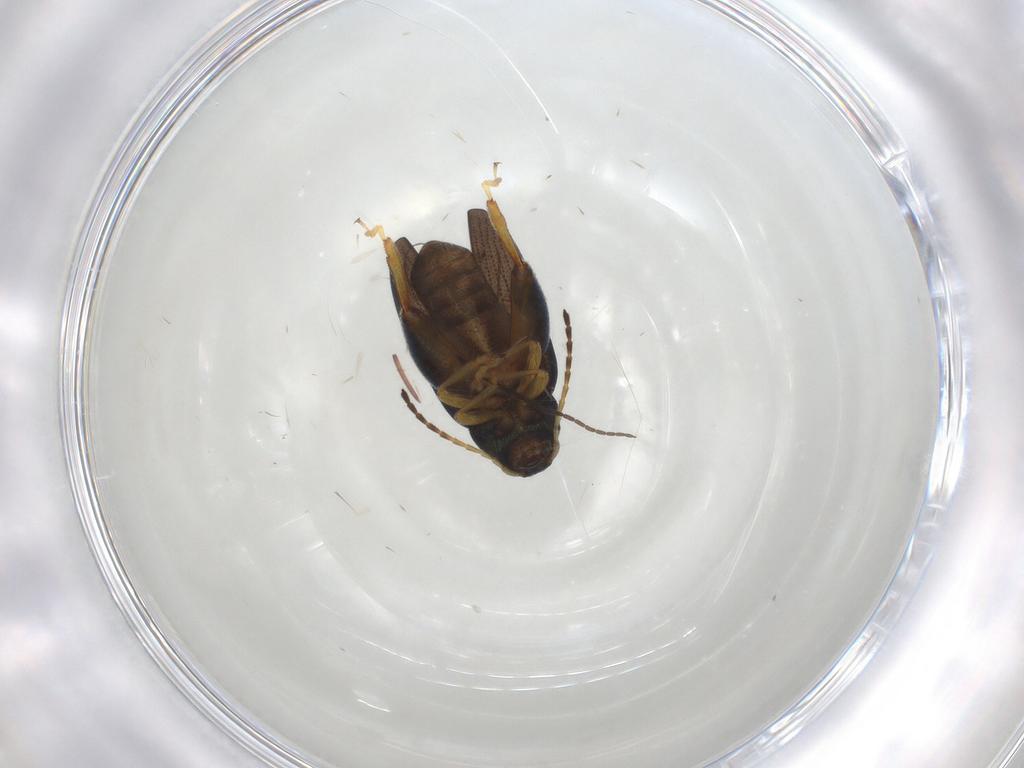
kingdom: Animalia
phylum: Arthropoda
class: Insecta
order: Coleoptera
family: Chrysomelidae
